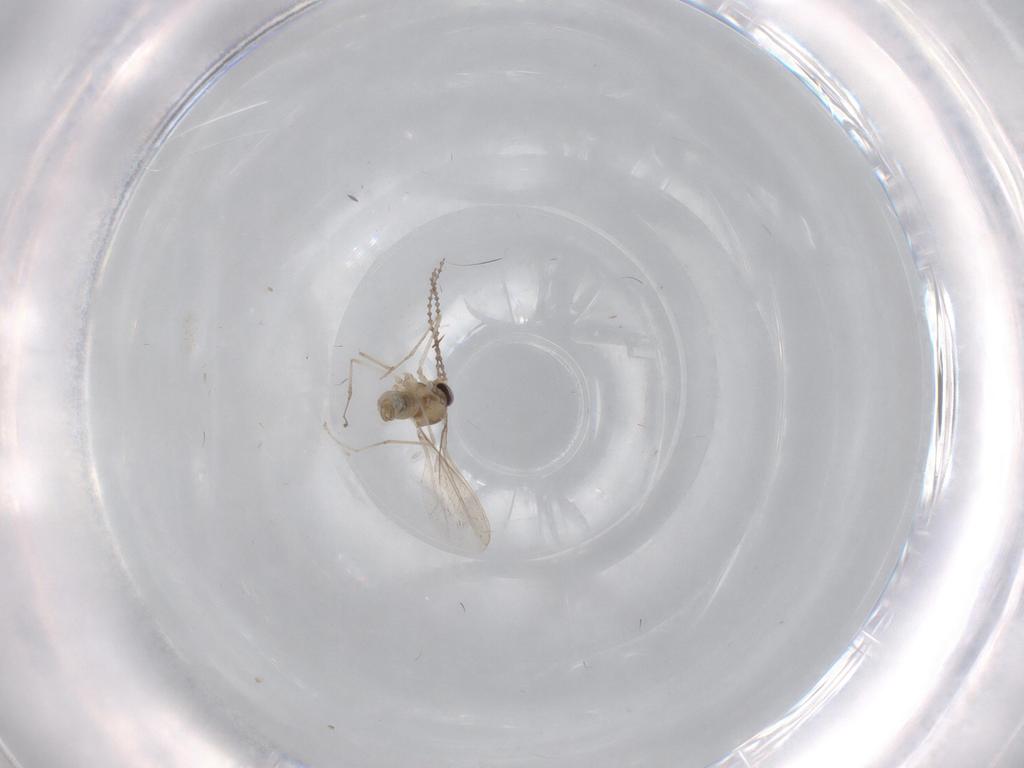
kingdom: Animalia
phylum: Arthropoda
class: Insecta
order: Diptera
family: Cecidomyiidae
